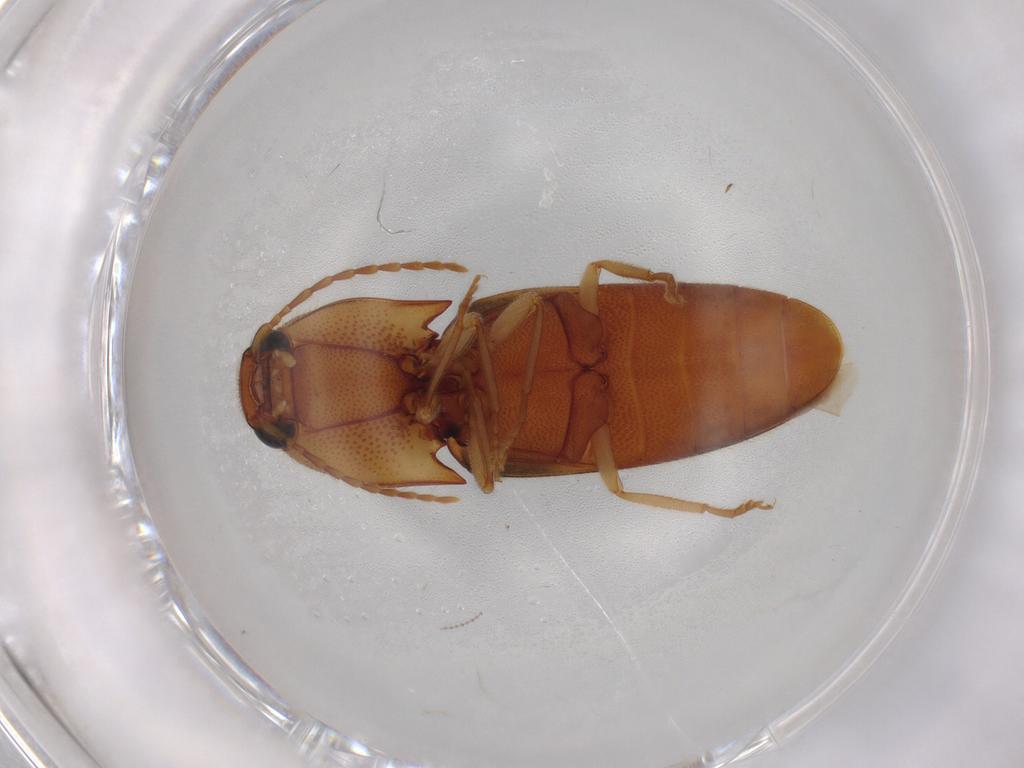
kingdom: Animalia
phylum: Arthropoda
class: Insecta
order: Coleoptera
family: Elateridae
